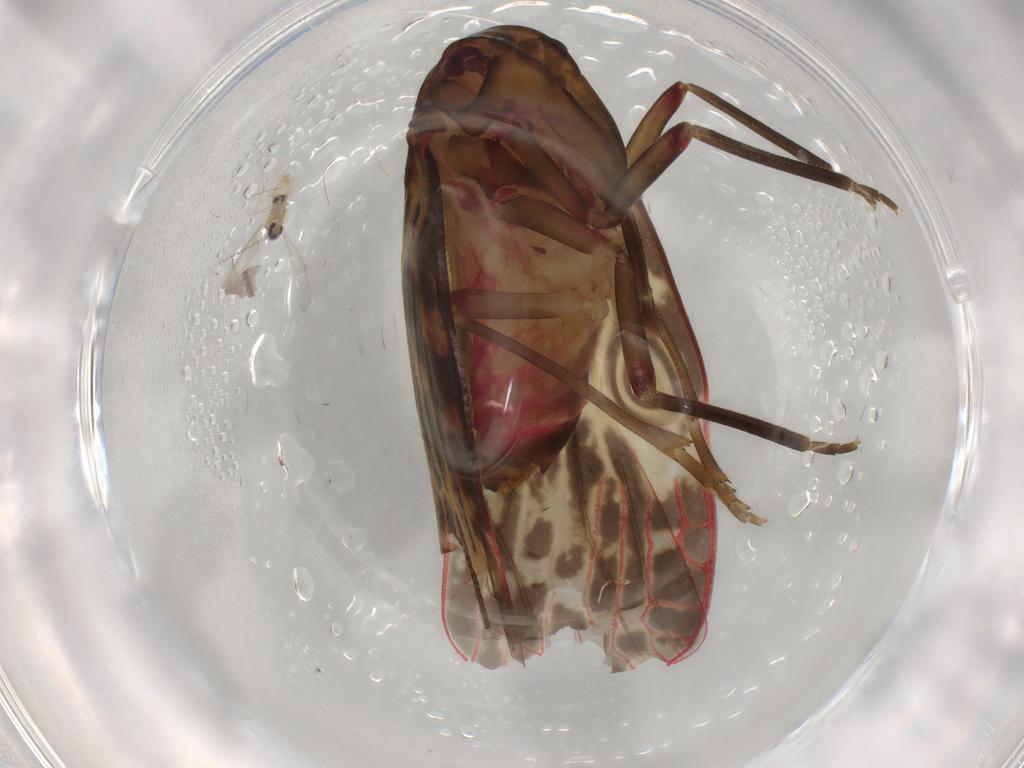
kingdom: Animalia
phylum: Arthropoda
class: Insecta
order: Hemiptera
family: Achilidae
